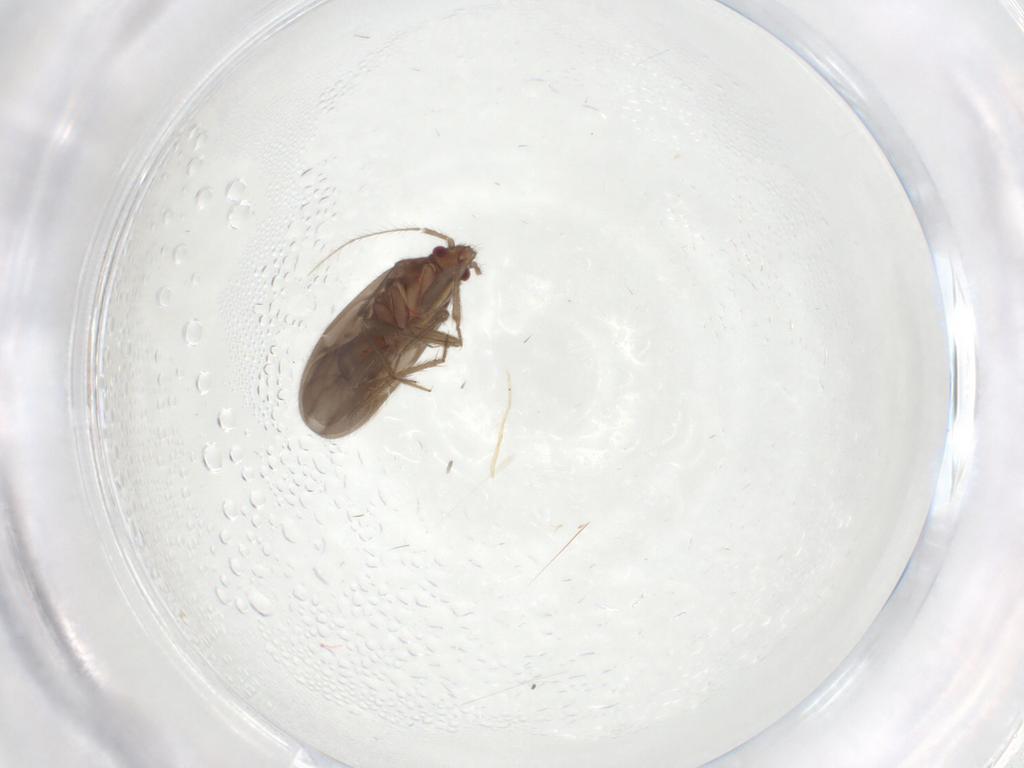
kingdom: Animalia
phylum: Arthropoda
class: Insecta
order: Hemiptera
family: Ceratocombidae
